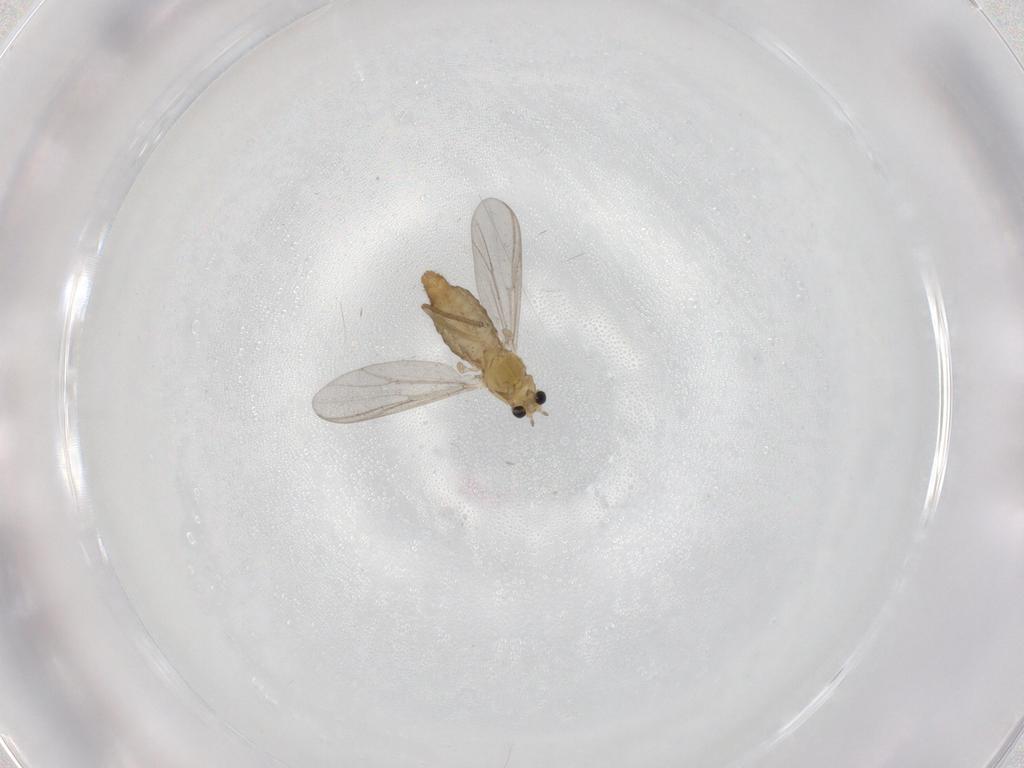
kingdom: Animalia
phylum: Arthropoda
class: Insecta
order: Diptera
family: Chironomidae
